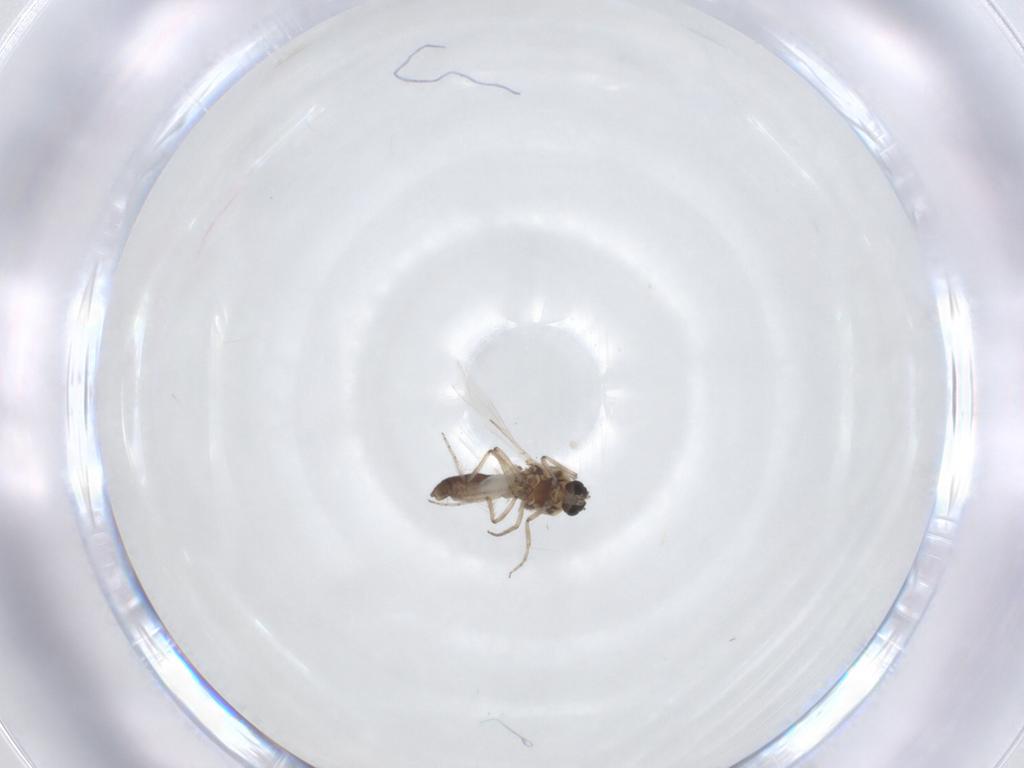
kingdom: Animalia
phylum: Arthropoda
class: Insecta
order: Diptera
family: Ceratopogonidae
